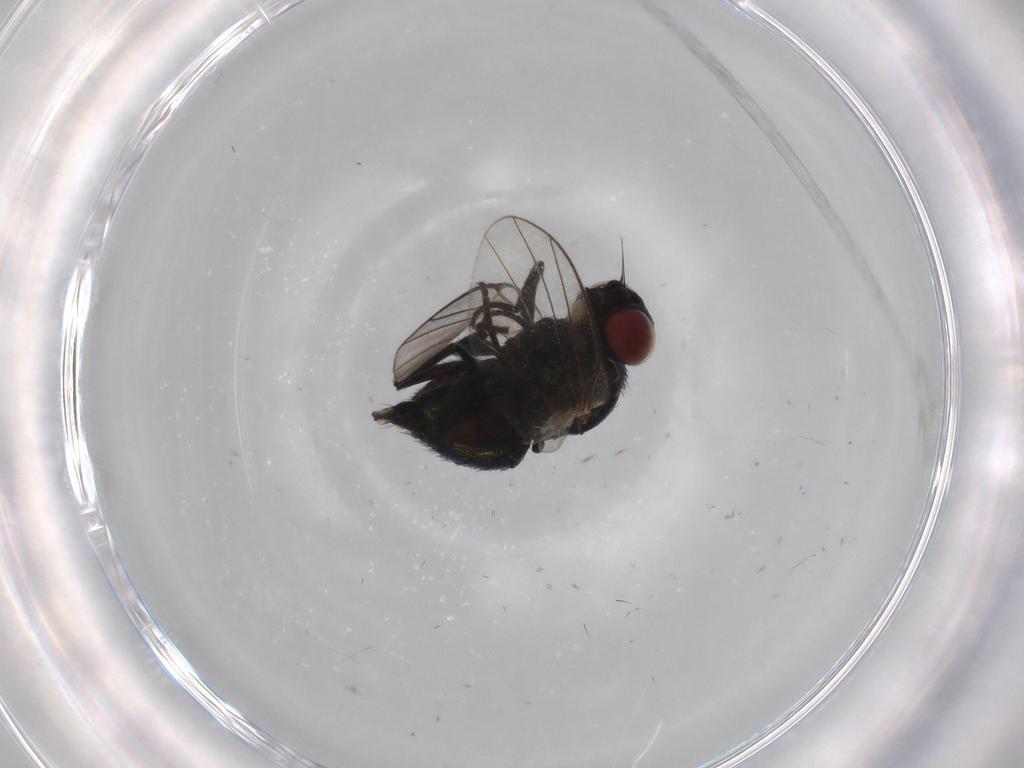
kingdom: Animalia
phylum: Arthropoda
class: Insecta
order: Diptera
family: Agromyzidae
